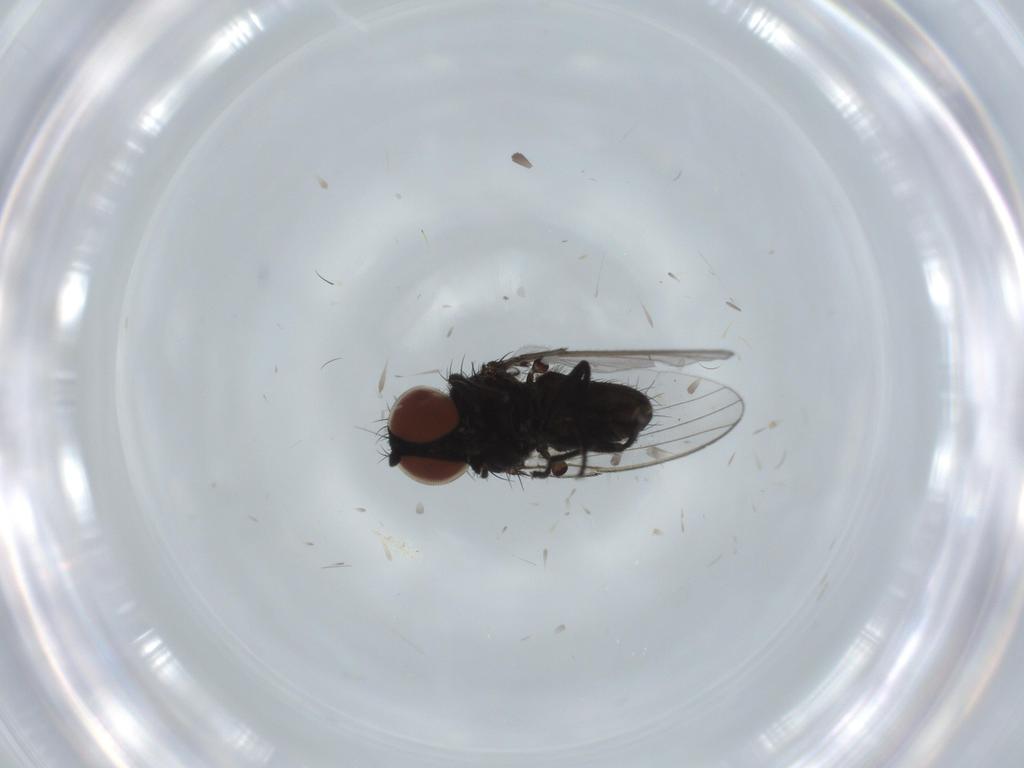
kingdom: Animalia
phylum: Arthropoda
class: Insecta
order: Diptera
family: Milichiidae
